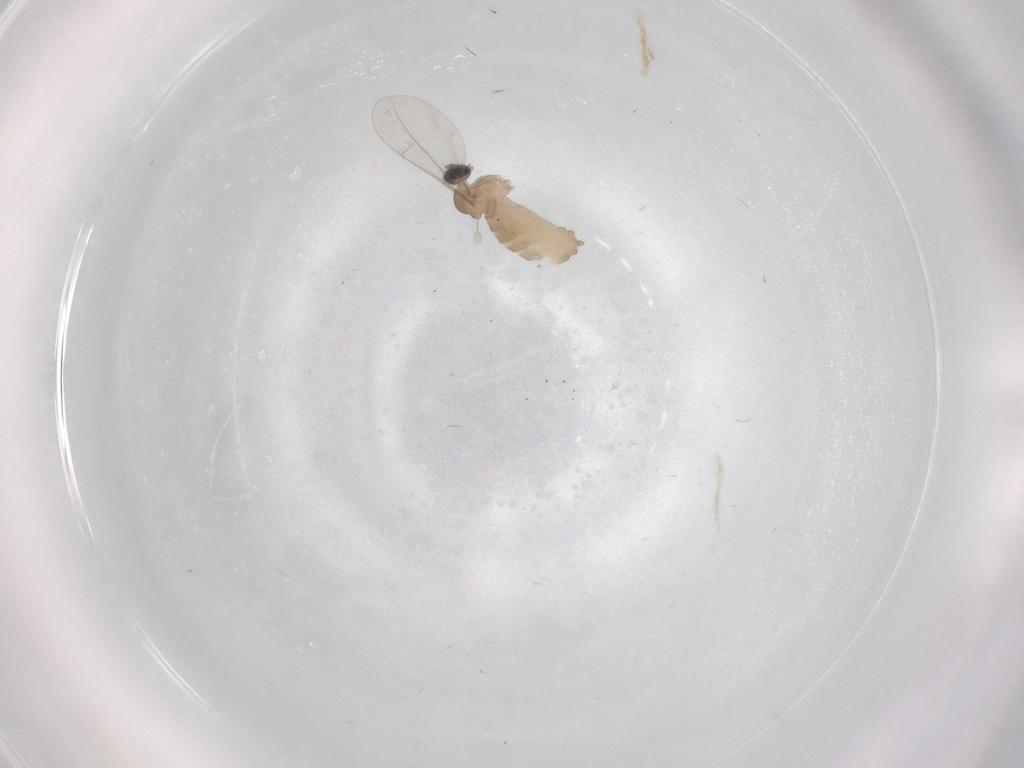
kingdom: Animalia
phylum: Arthropoda
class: Insecta
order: Diptera
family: Cecidomyiidae
